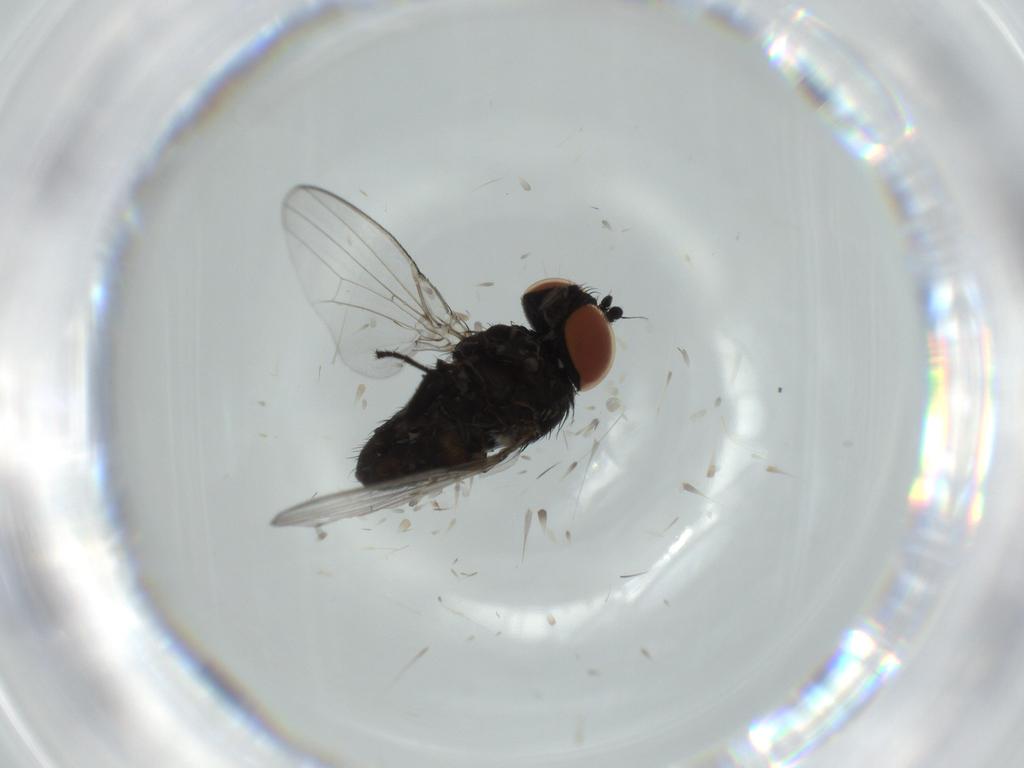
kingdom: Animalia
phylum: Arthropoda
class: Insecta
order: Diptera
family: Milichiidae
